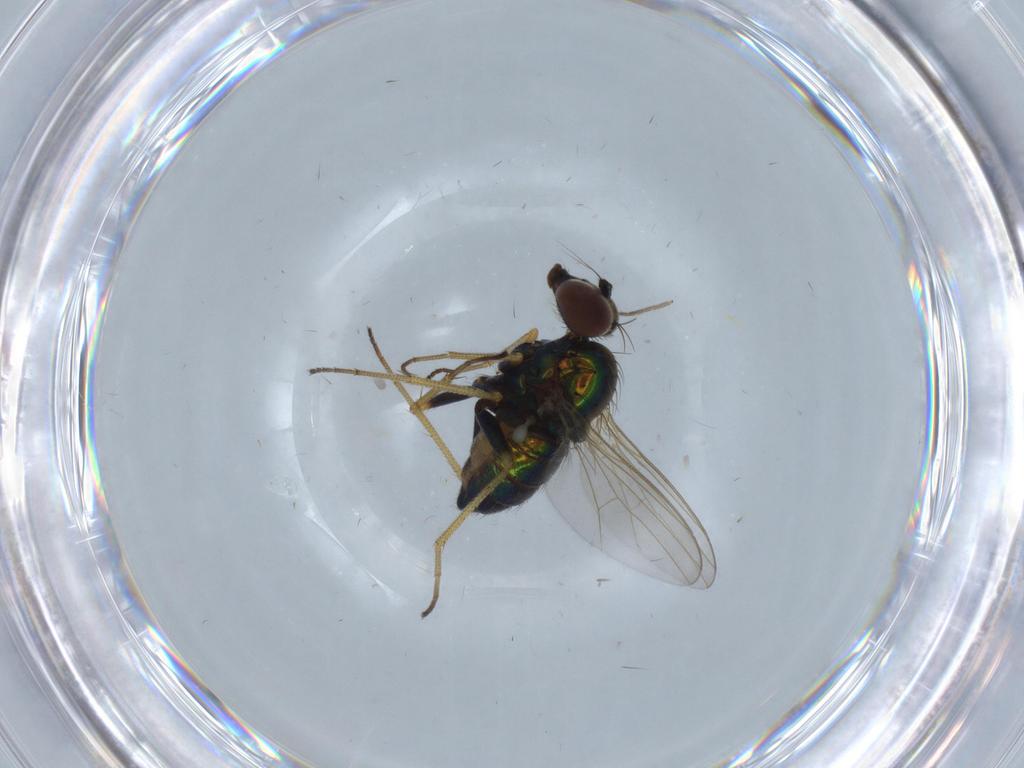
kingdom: Animalia
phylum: Arthropoda
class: Insecta
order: Diptera
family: Dolichopodidae
